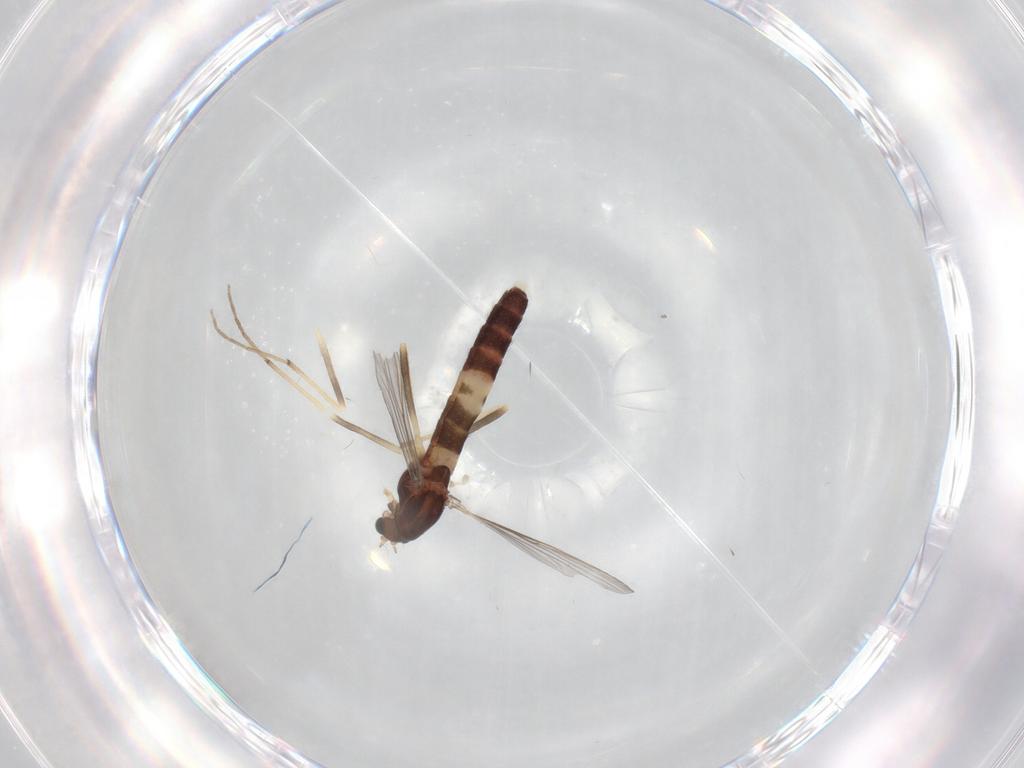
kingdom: Animalia
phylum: Arthropoda
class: Insecta
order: Diptera
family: Chironomidae
